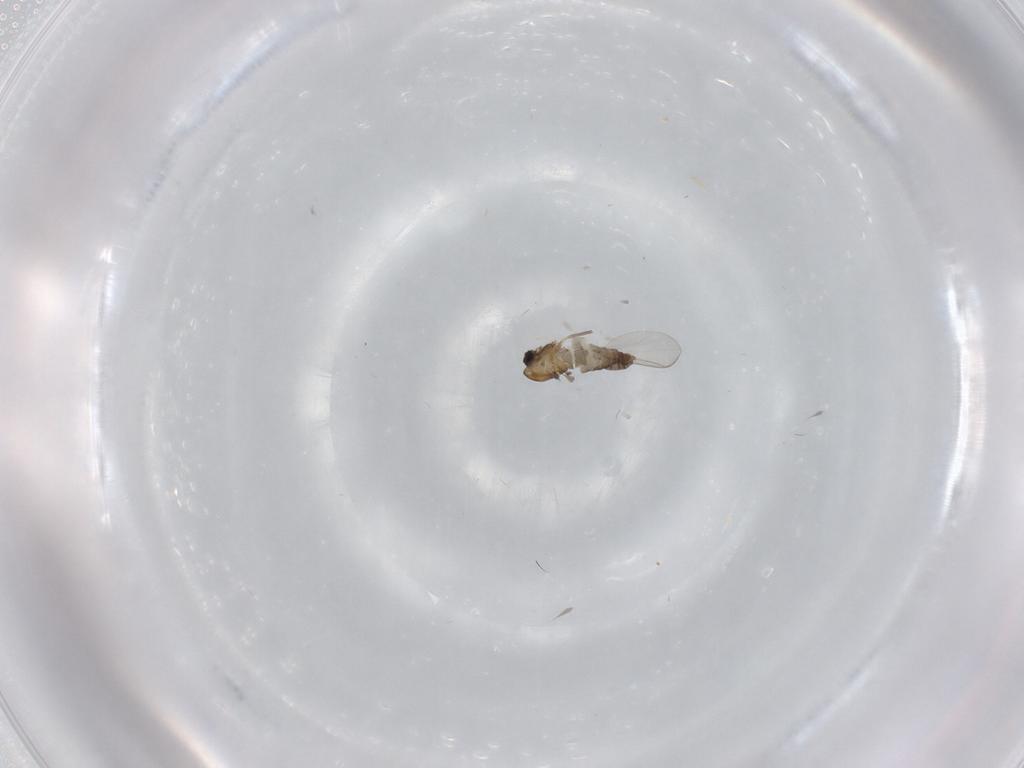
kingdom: Animalia
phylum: Arthropoda
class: Insecta
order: Diptera
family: Chironomidae
